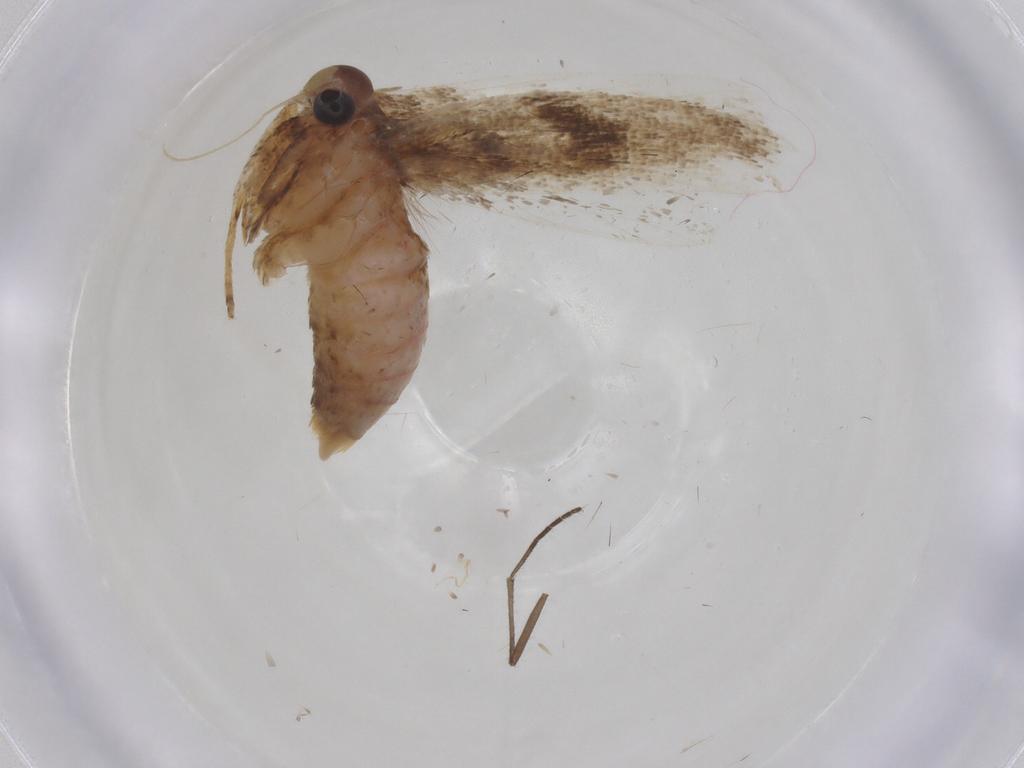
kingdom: Animalia
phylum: Arthropoda
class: Insecta
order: Lepidoptera
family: Gelechiidae
